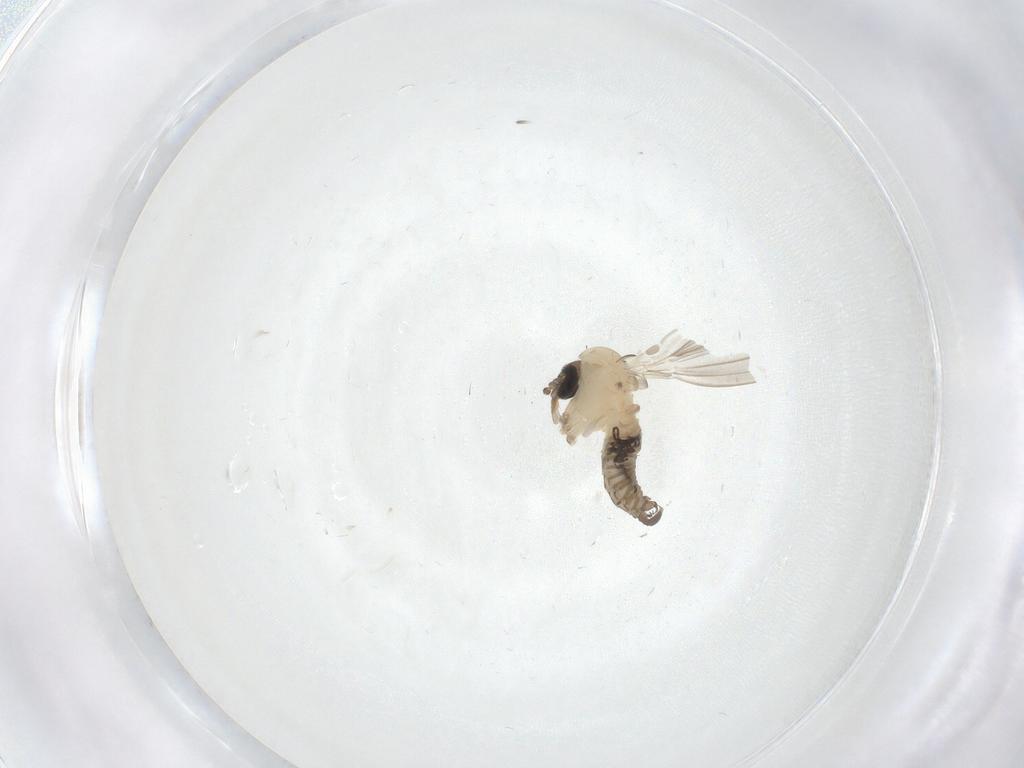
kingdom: Animalia
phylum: Arthropoda
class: Insecta
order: Diptera
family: Psychodidae
